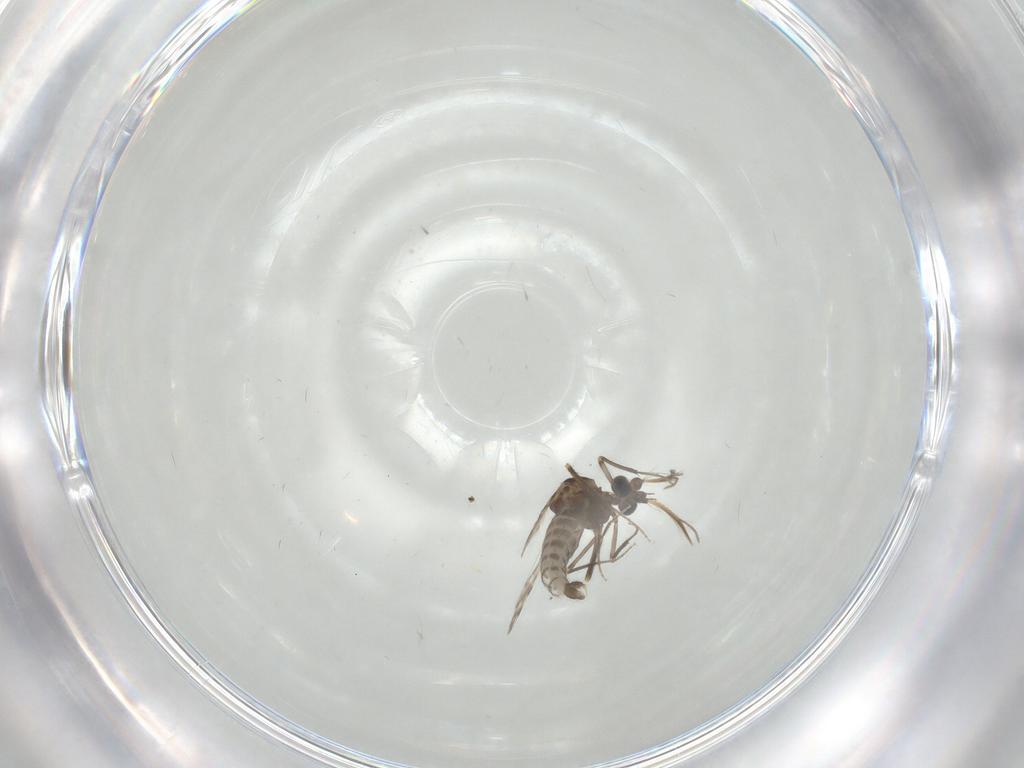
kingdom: Animalia
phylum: Arthropoda
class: Insecta
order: Diptera
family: Ceratopogonidae
